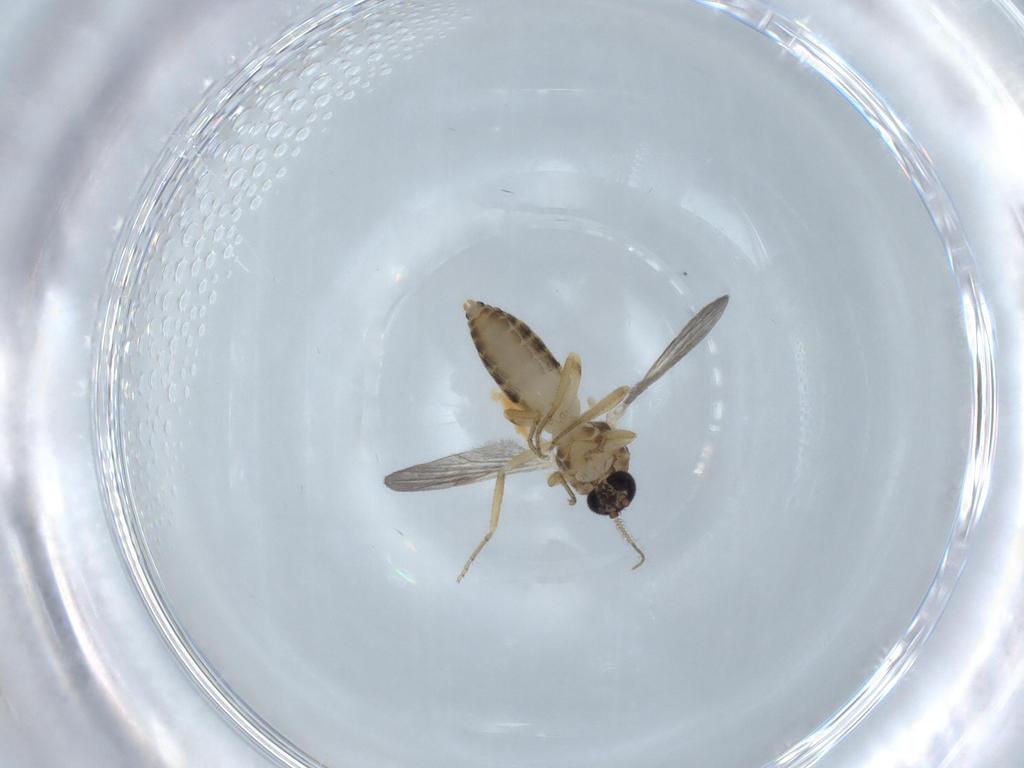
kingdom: Animalia
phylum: Arthropoda
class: Insecta
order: Diptera
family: Ceratopogonidae
